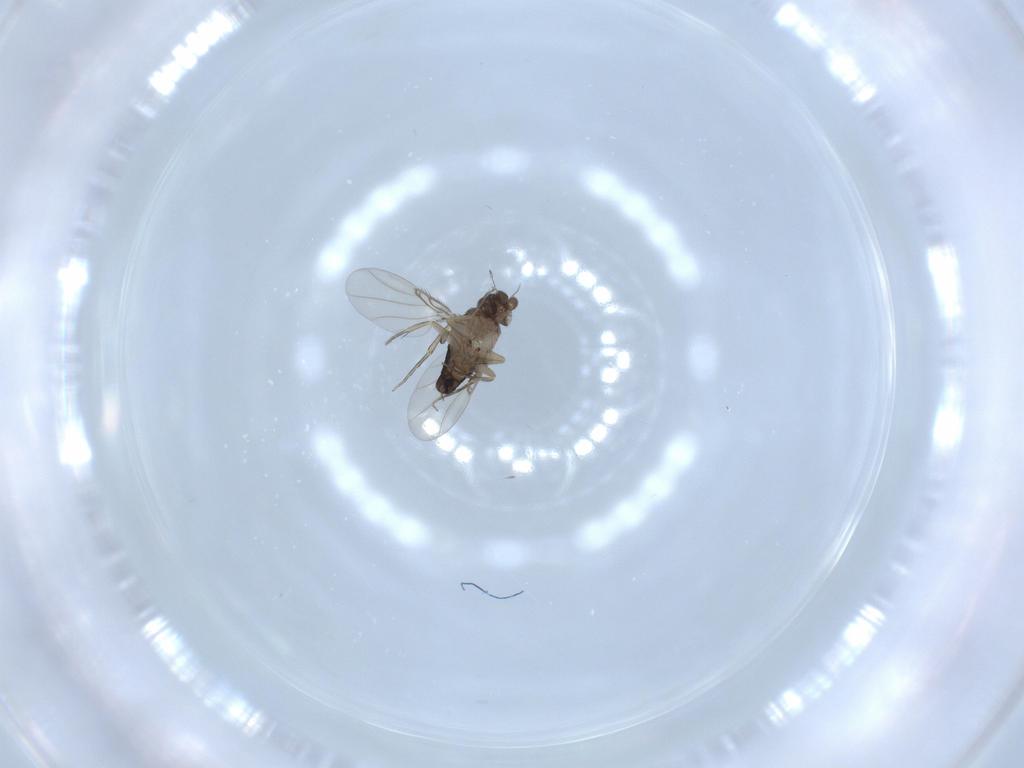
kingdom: Animalia
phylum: Arthropoda
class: Insecta
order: Diptera
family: Phoridae
